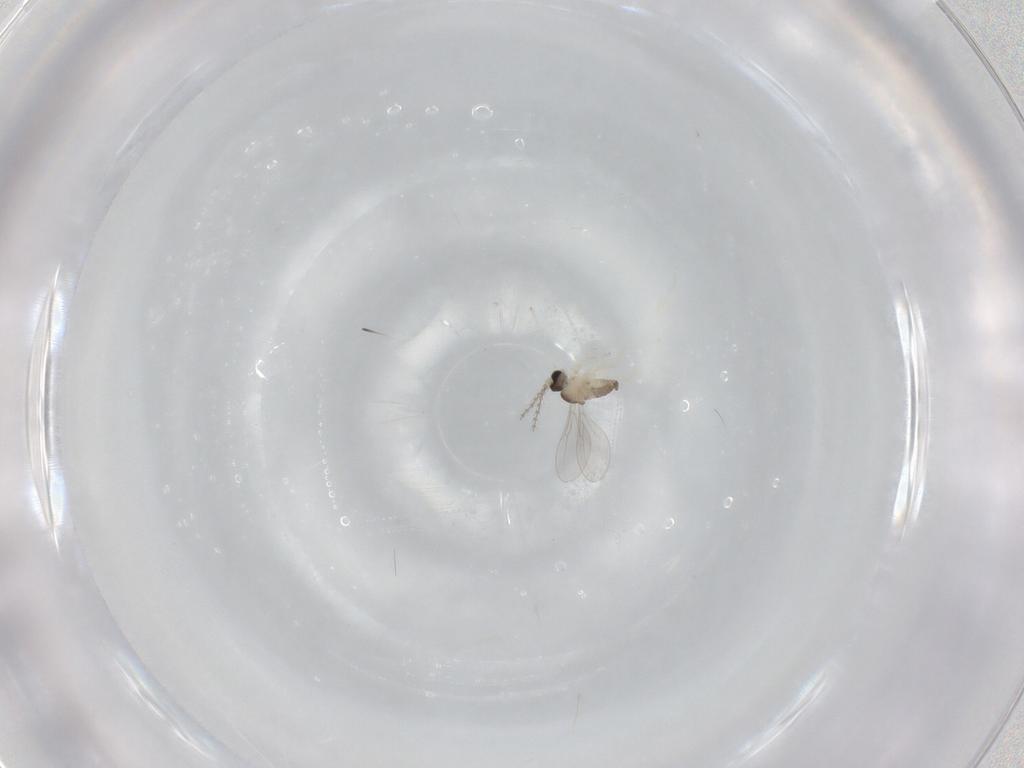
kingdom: Animalia
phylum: Arthropoda
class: Insecta
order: Diptera
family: Cecidomyiidae
